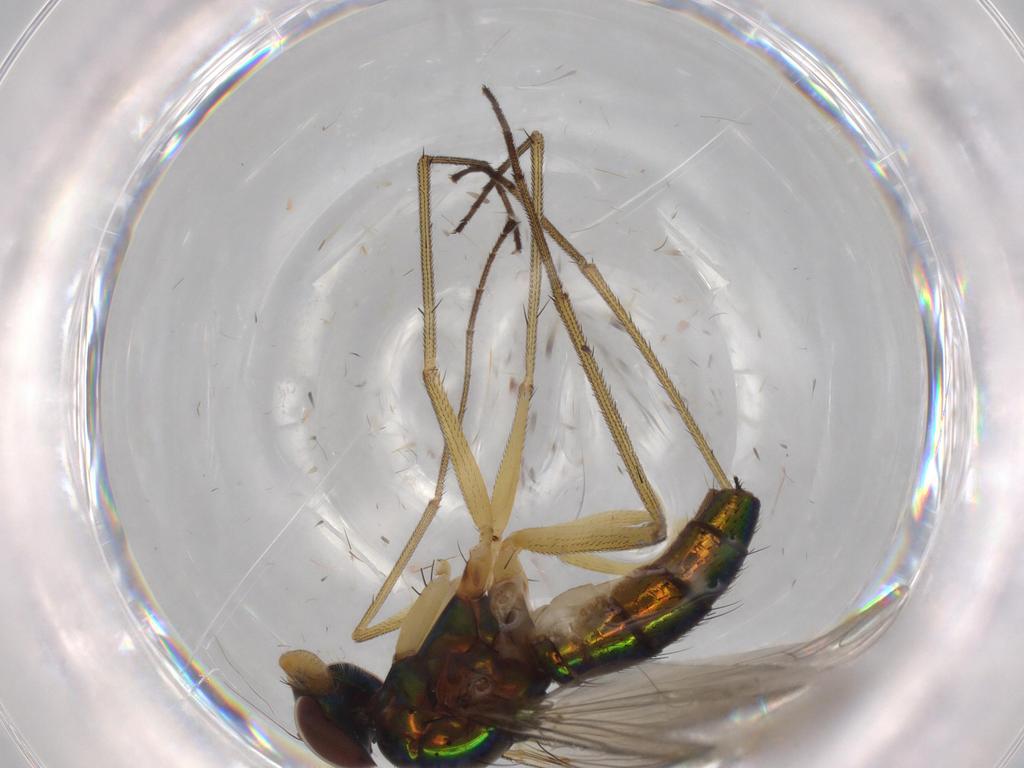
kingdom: Animalia
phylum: Arthropoda
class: Insecta
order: Diptera
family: Dolichopodidae
